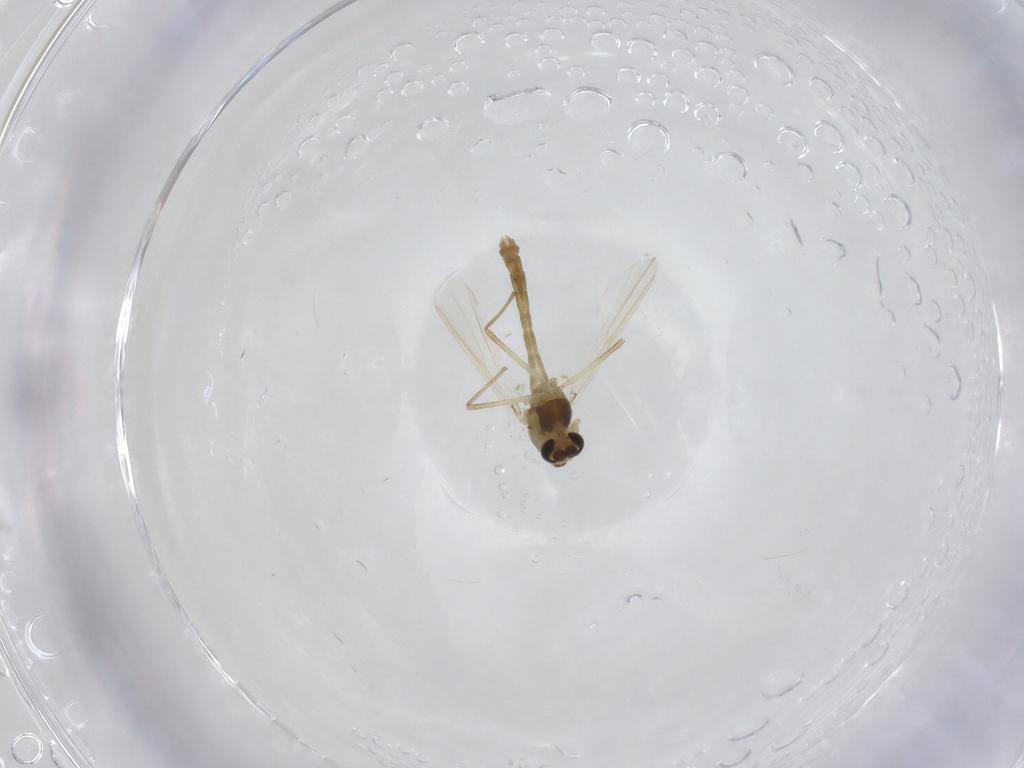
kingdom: Animalia
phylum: Arthropoda
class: Insecta
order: Diptera
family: Chironomidae
